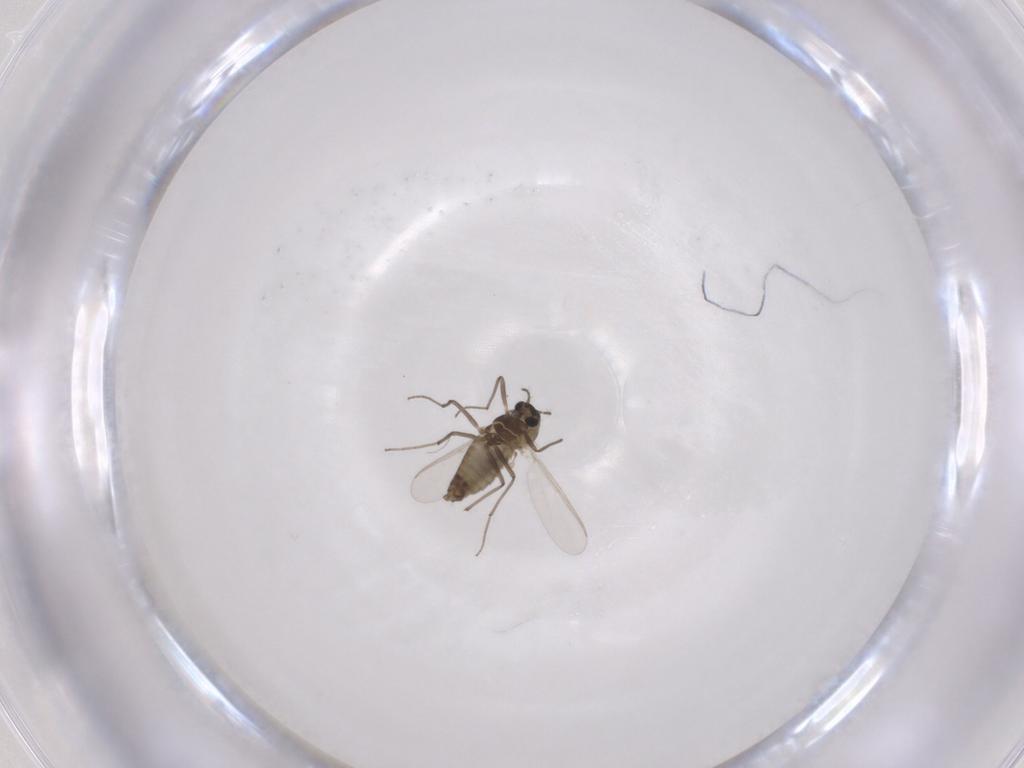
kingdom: Animalia
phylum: Arthropoda
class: Insecta
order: Diptera
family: Chironomidae
